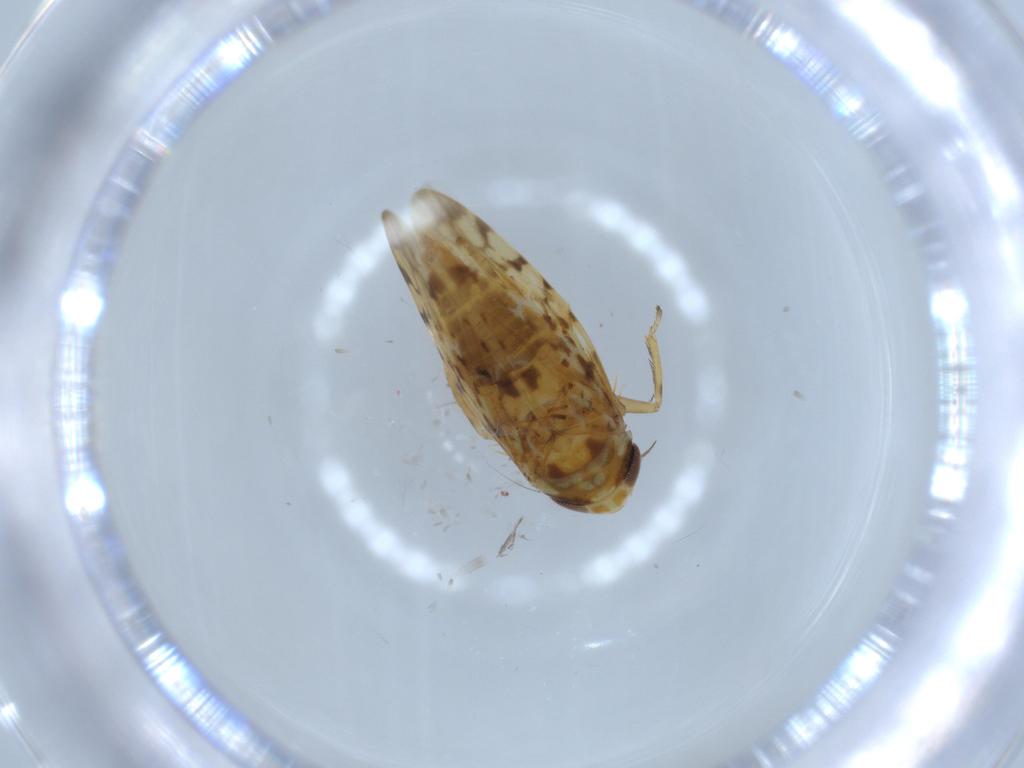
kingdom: Animalia
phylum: Arthropoda
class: Insecta
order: Hemiptera
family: Cicadellidae
